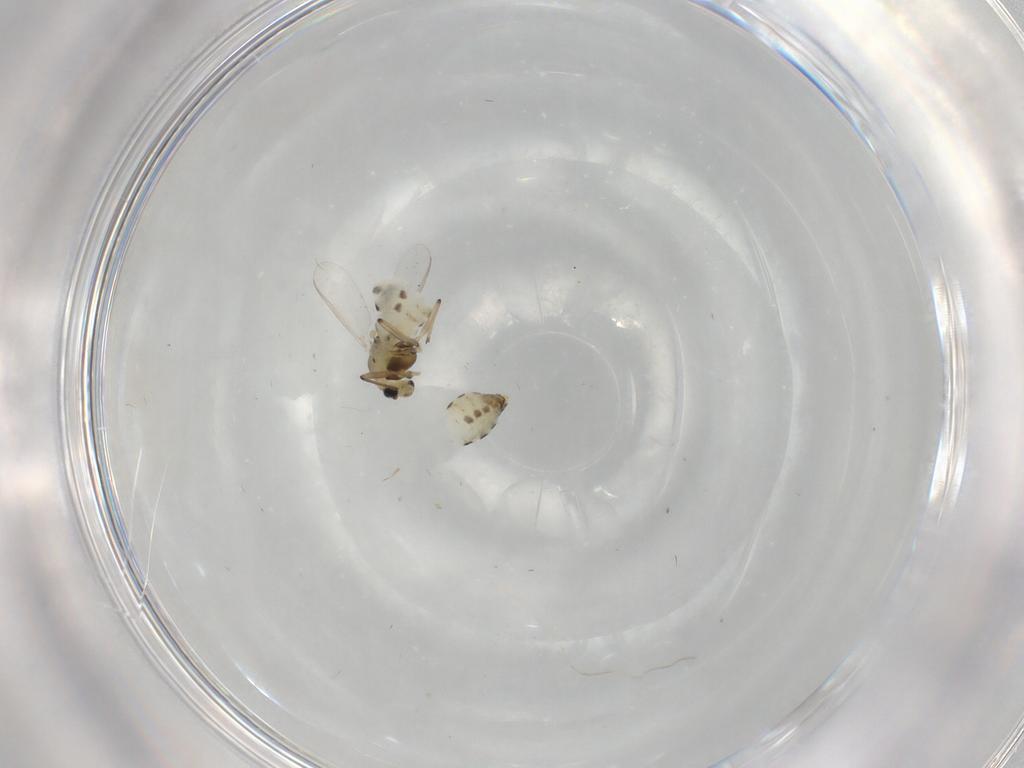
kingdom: Animalia
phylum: Arthropoda
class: Insecta
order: Diptera
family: Chironomidae
